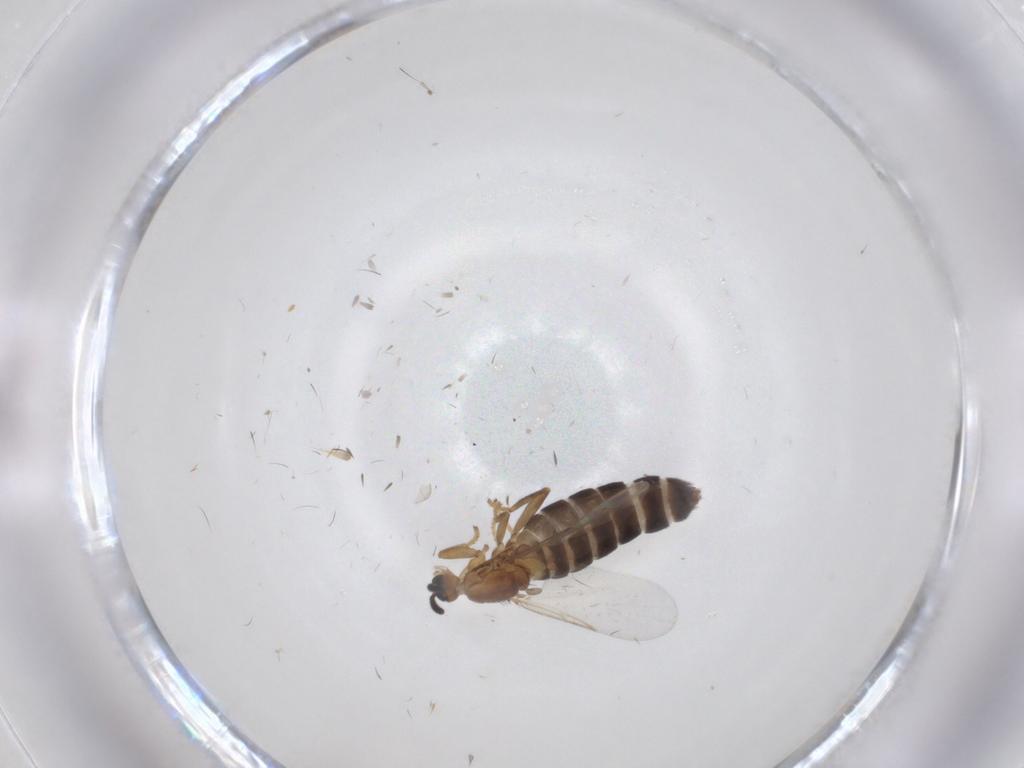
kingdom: Animalia
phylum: Arthropoda
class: Insecta
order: Diptera
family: Scatopsidae
